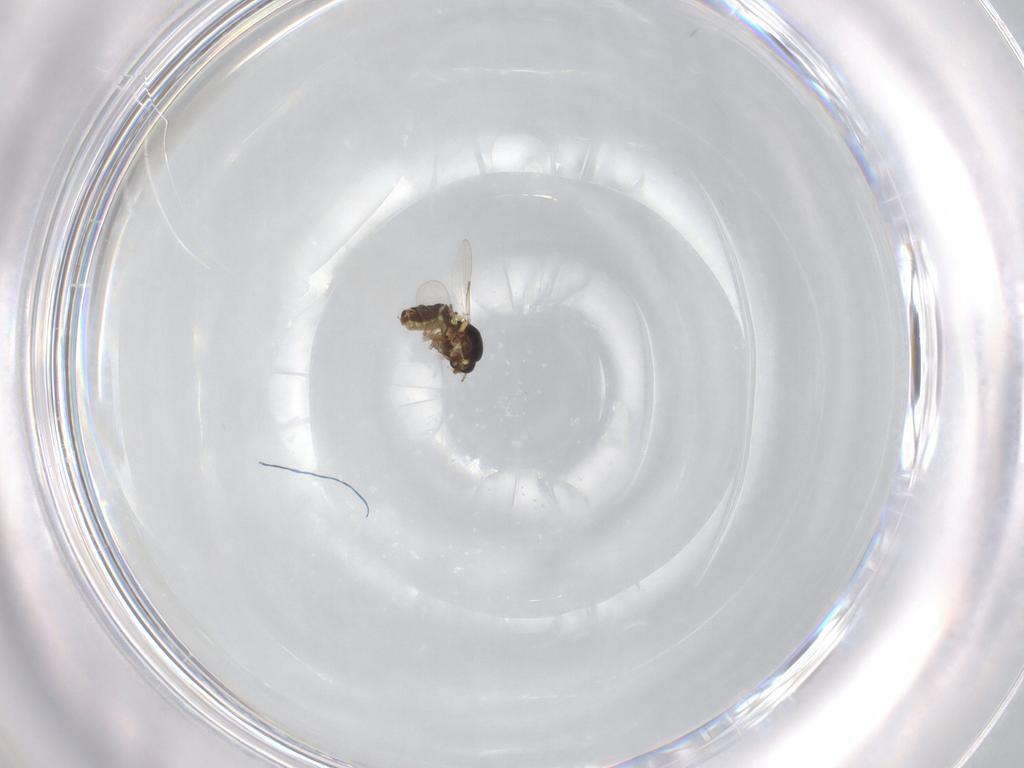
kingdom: Animalia
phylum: Arthropoda
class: Insecta
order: Diptera
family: Ceratopogonidae
